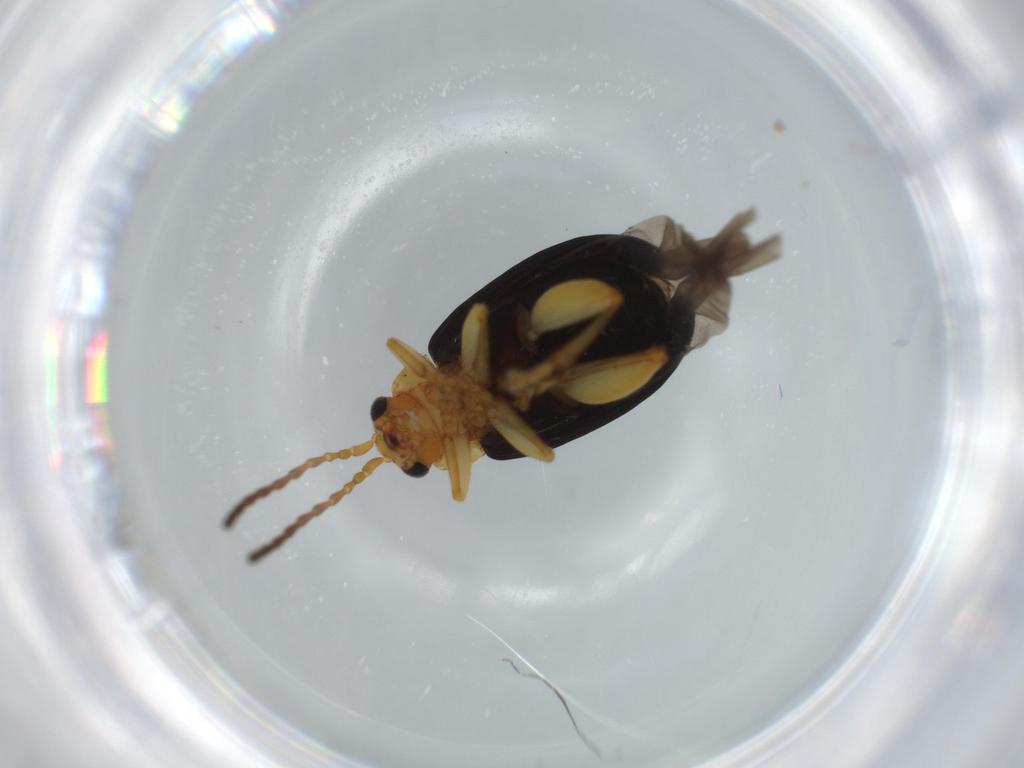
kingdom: Animalia
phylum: Arthropoda
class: Insecta
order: Coleoptera
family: Chrysomelidae
